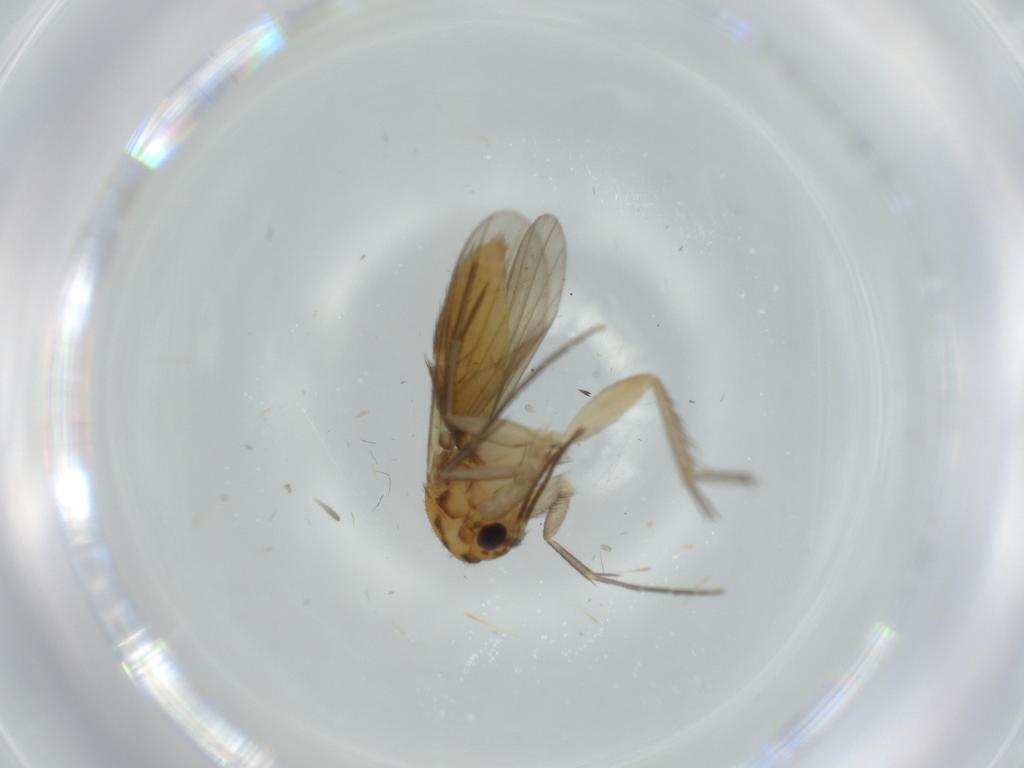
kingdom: Animalia
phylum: Arthropoda
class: Insecta
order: Diptera
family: Mycetophilidae
